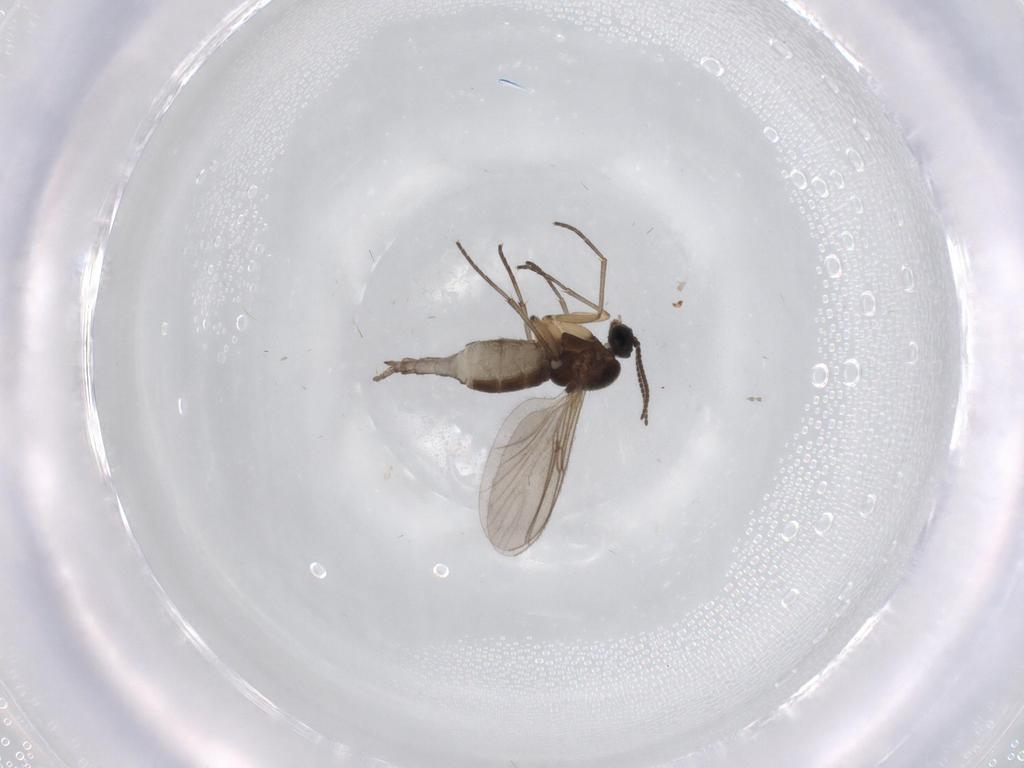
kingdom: Animalia
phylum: Arthropoda
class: Insecta
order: Diptera
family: Sciaridae
